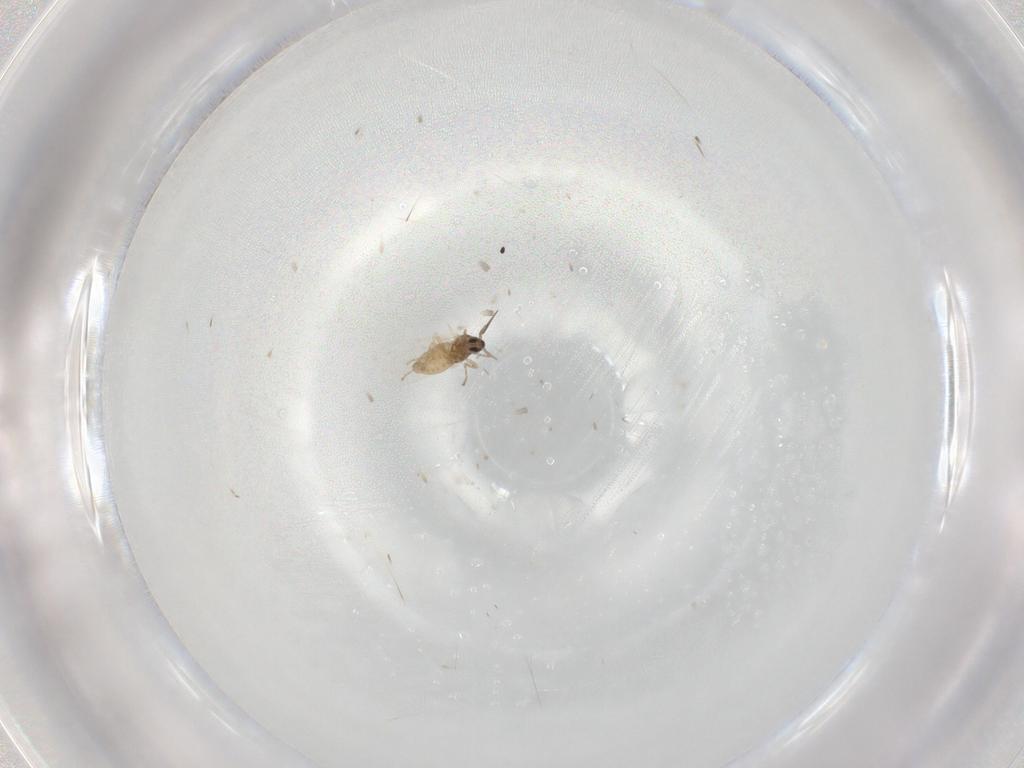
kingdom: Animalia
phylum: Arthropoda
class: Insecta
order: Diptera
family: Cecidomyiidae
